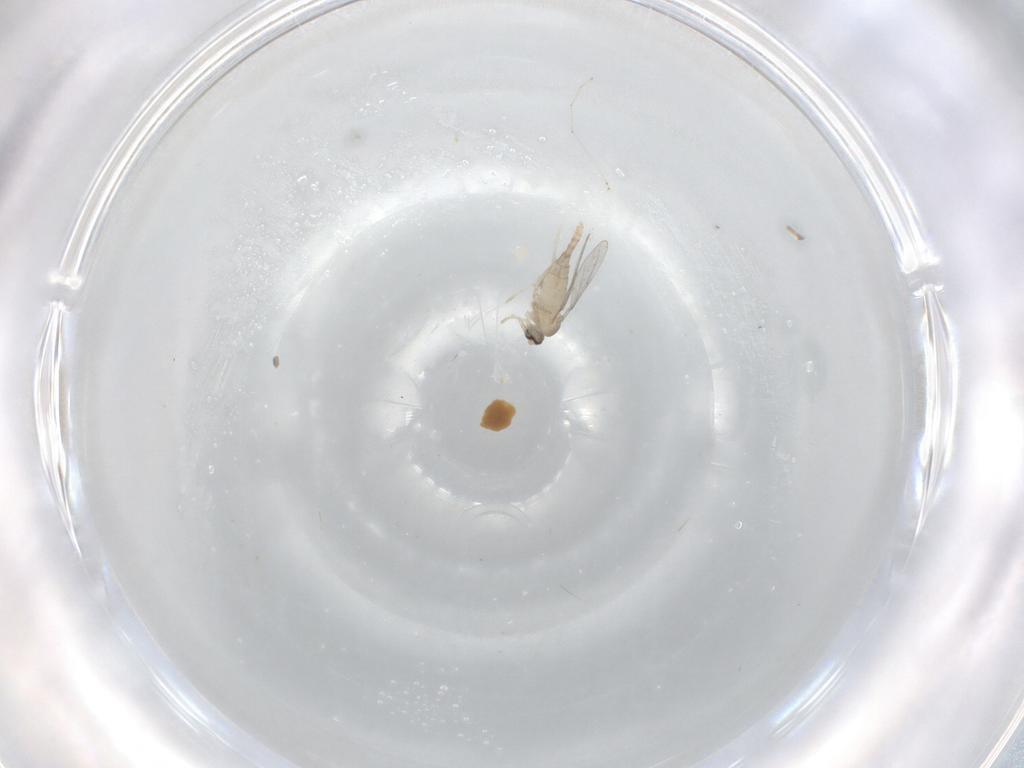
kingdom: Animalia
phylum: Arthropoda
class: Insecta
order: Diptera
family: Cecidomyiidae
